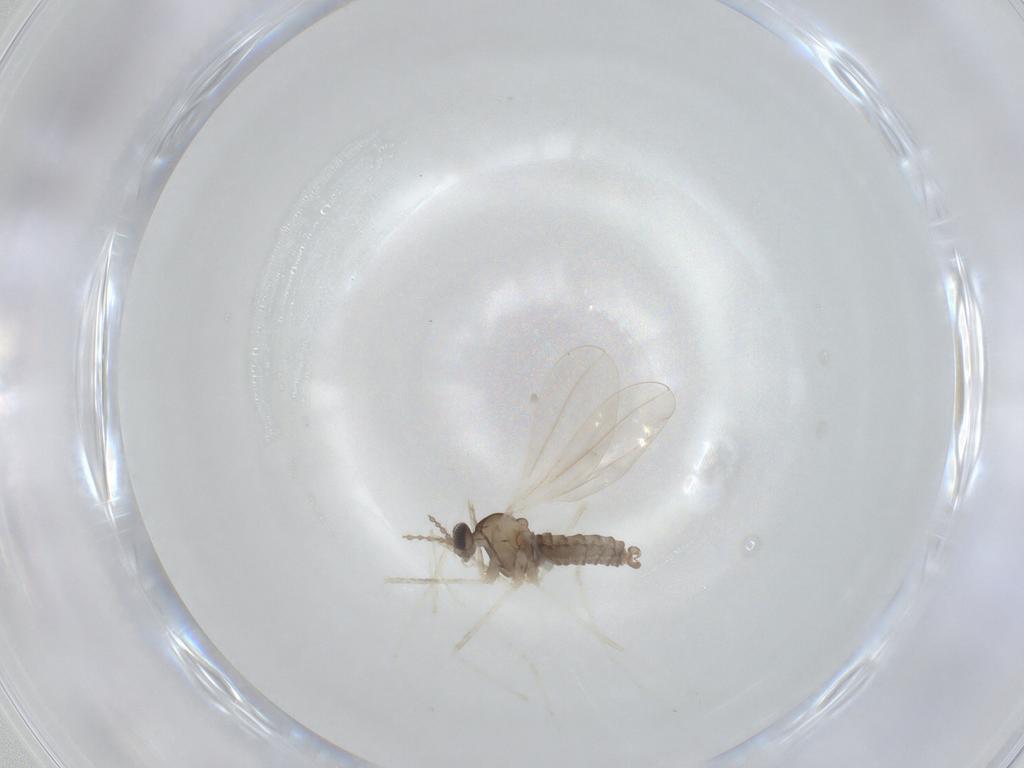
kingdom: Animalia
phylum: Arthropoda
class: Insecta
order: Diptera
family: Cecidomyiidae
